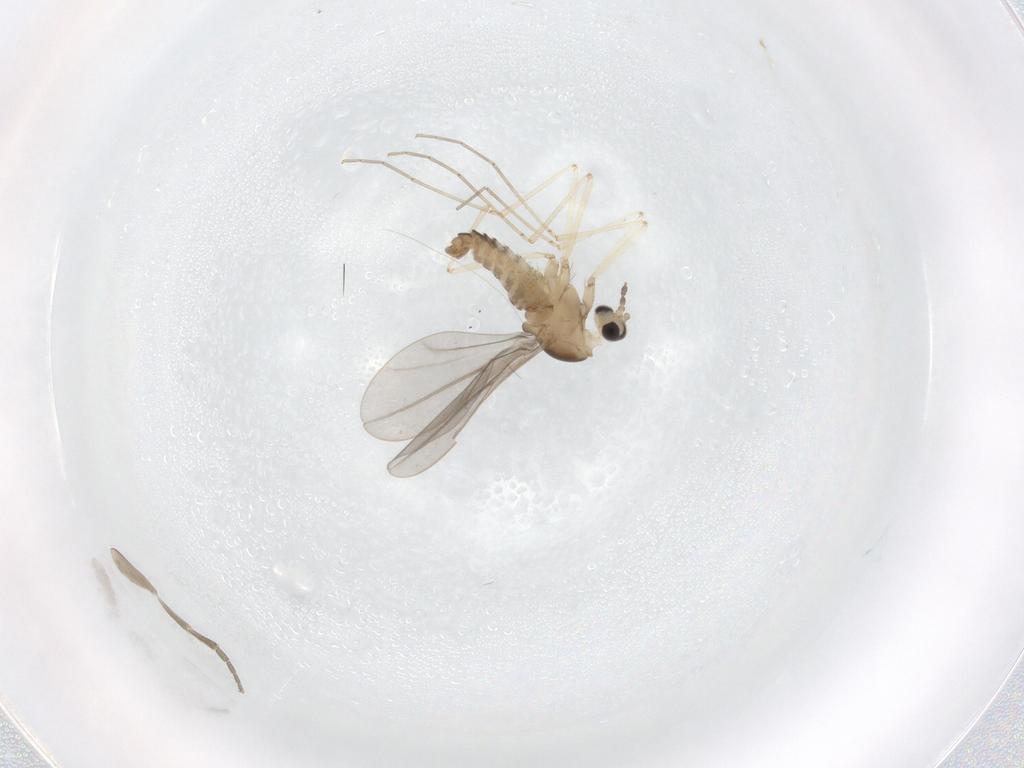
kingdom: Animalia
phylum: Arthropoda
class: Insecta
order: Diptera
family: Phoridae
